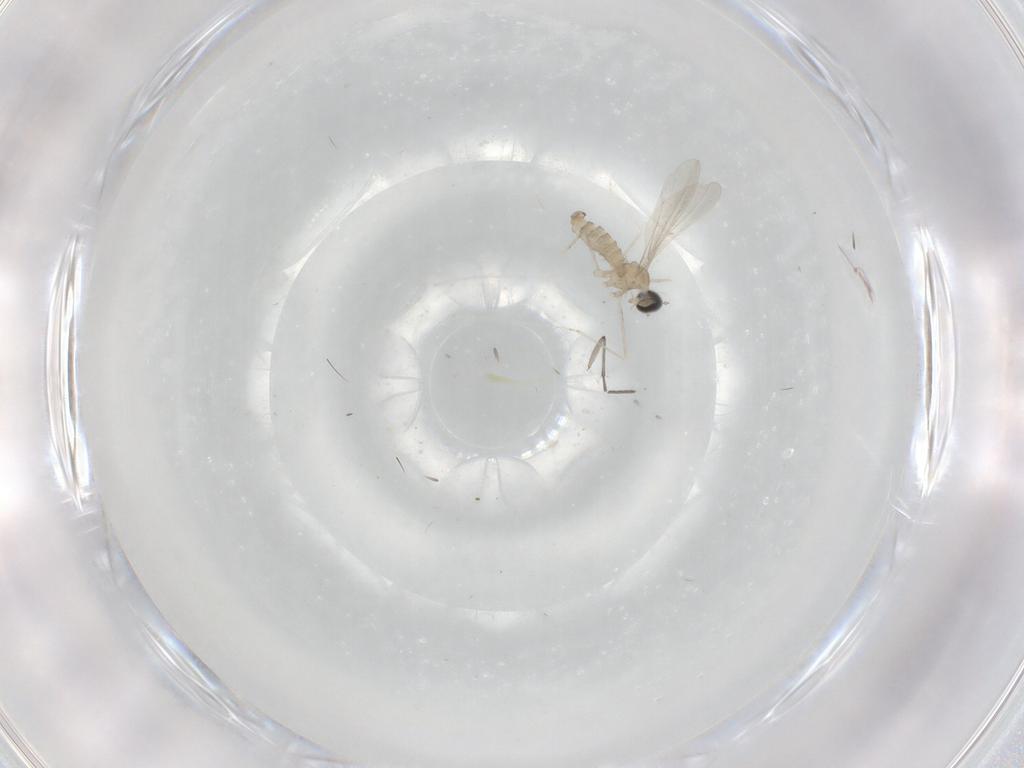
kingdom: Animalia
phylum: Arthropoda
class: Insecta
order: Diptera
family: Cecidomyiidae
